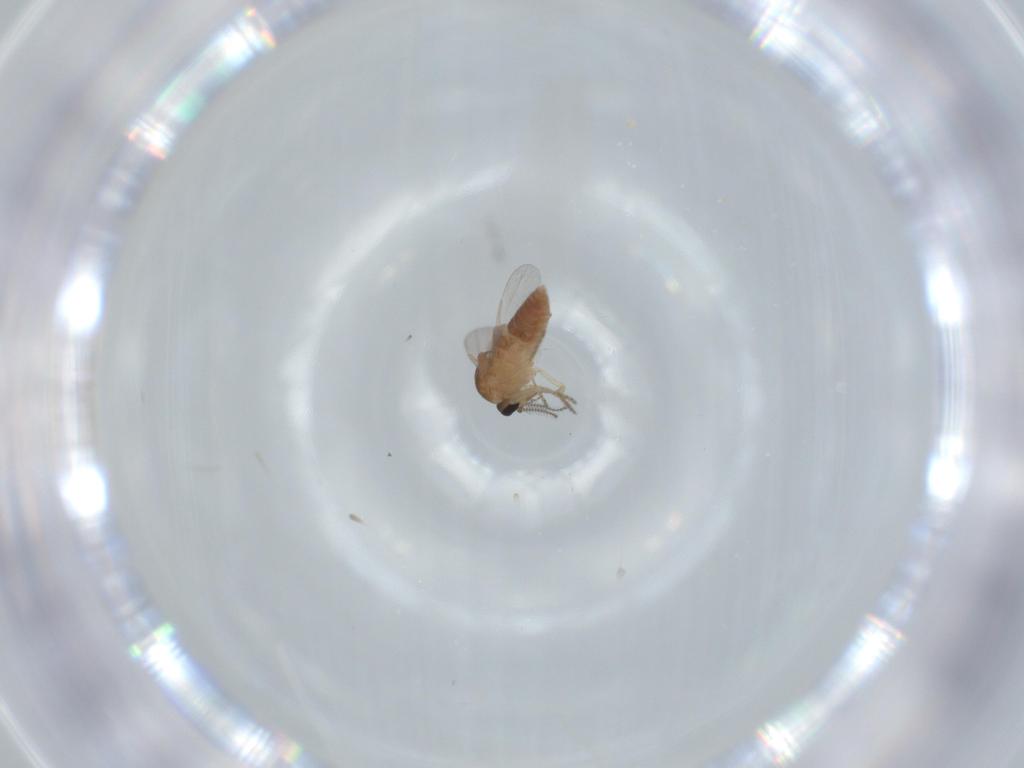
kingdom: Animalia
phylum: Arthropoda
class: Insecta
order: Diptera
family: Ceratopogonidae
